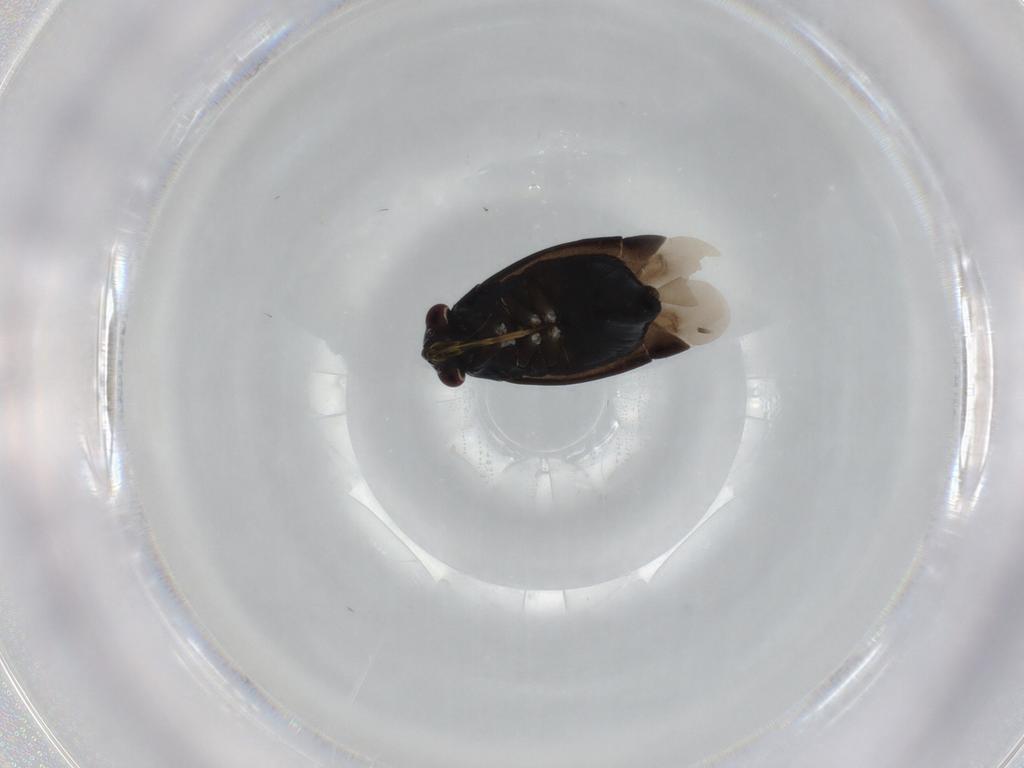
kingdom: Animalia
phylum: Arthropoda
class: Insecta
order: Hemiptera
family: Miridae
